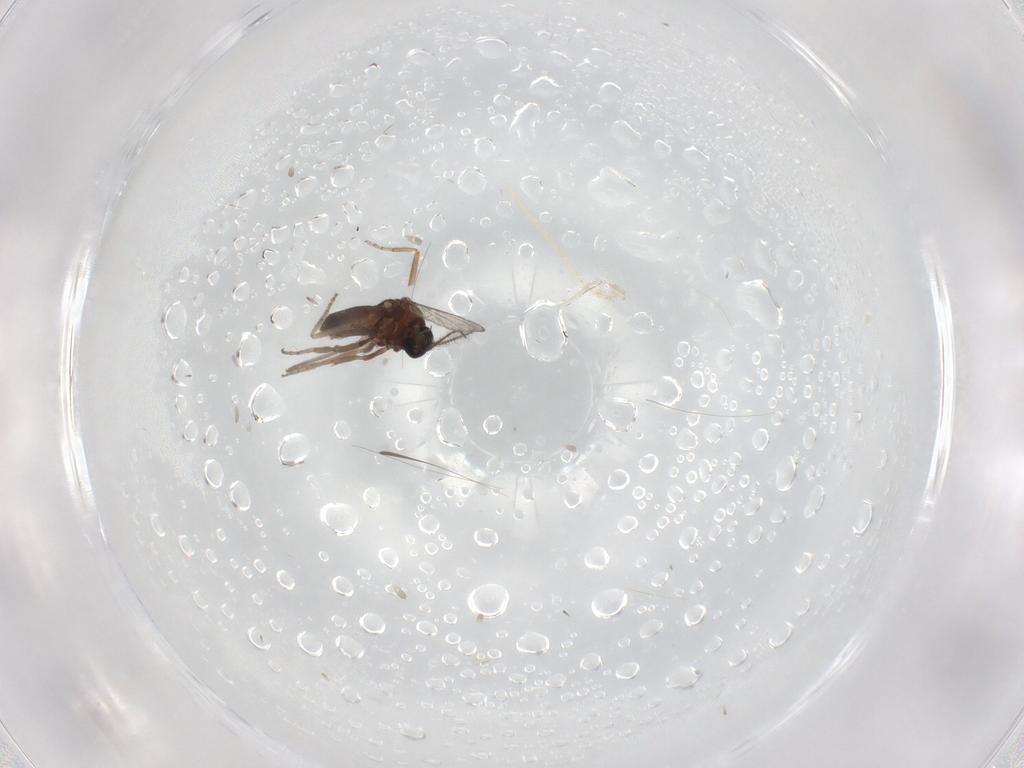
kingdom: Animalia
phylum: Arthropoda
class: Insecta
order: Diptera
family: Ceratopogonidae
